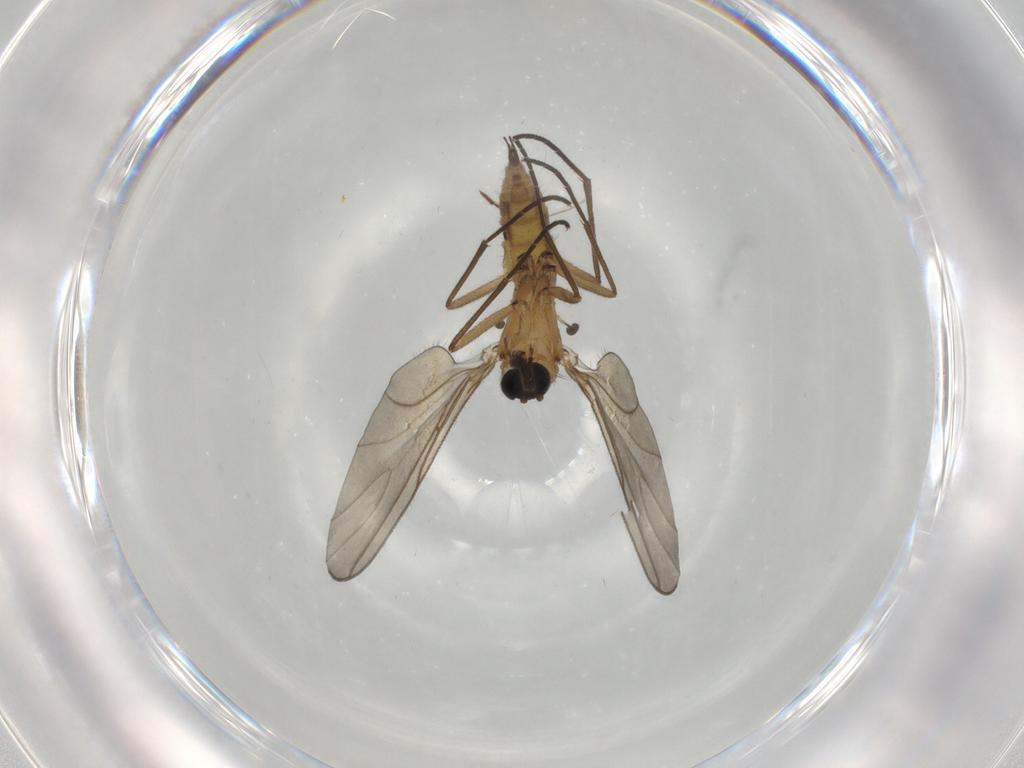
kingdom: Animalia
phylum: Arthropoda
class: Insecta
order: Diptera
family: Sciaridae
